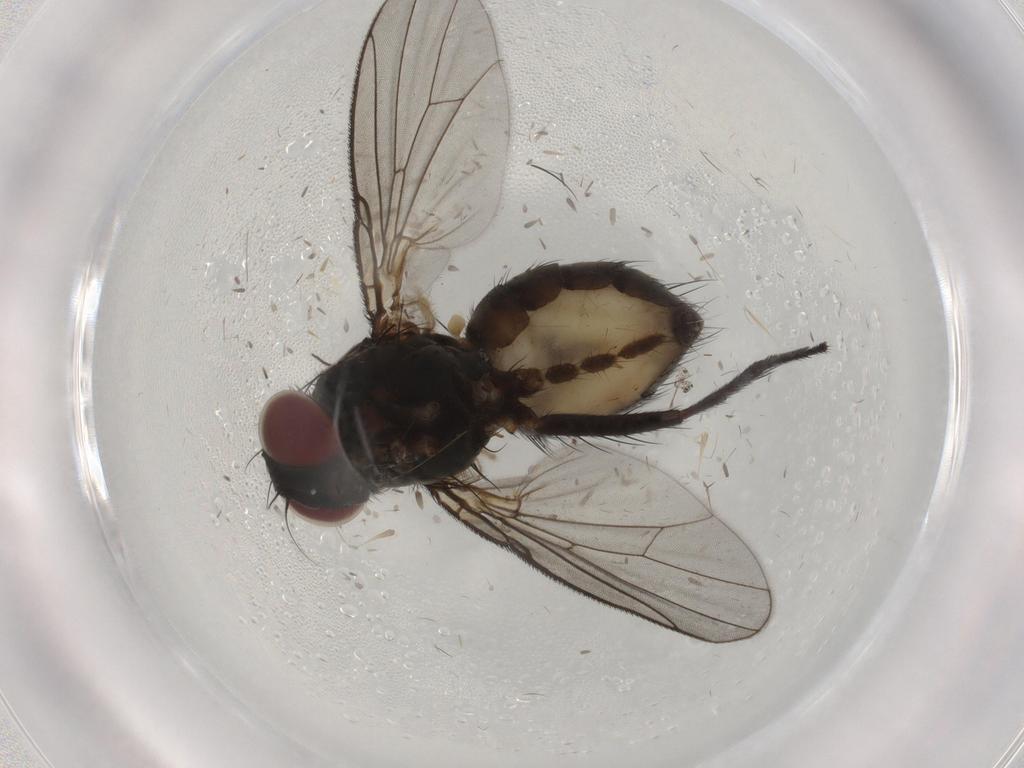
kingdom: Animalia
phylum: Arthropoda
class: Insecta
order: Diptera
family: Muscidae
